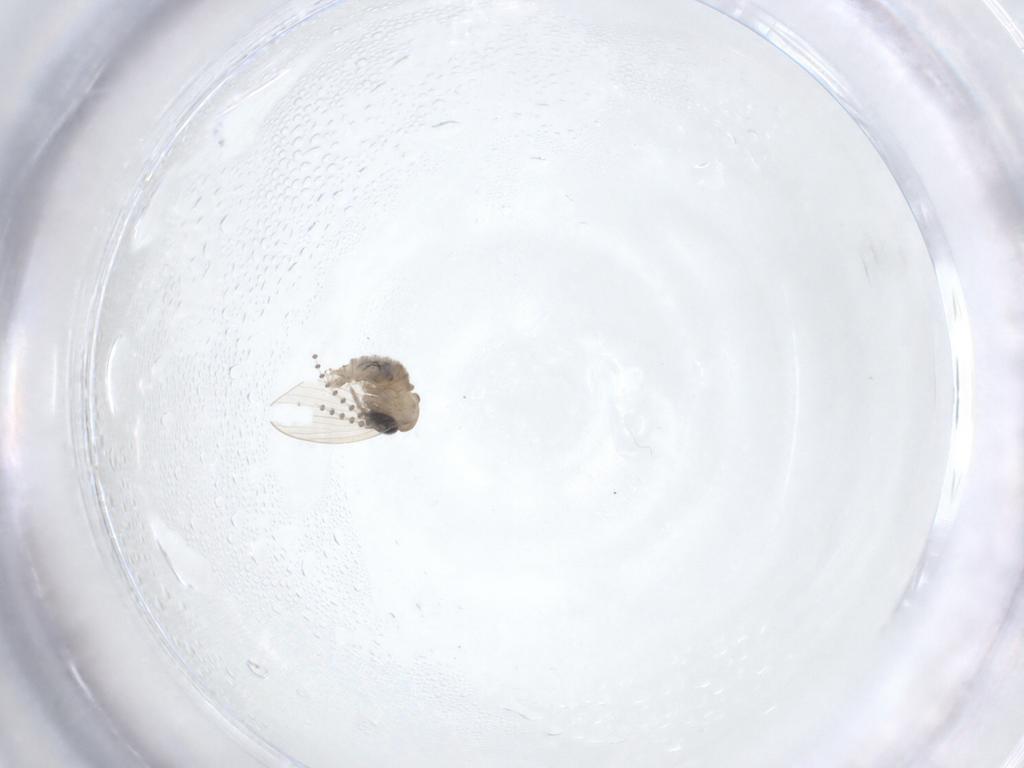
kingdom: Animalia
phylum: Arthropoda
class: Insecta
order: Diptera
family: Psychodidae
